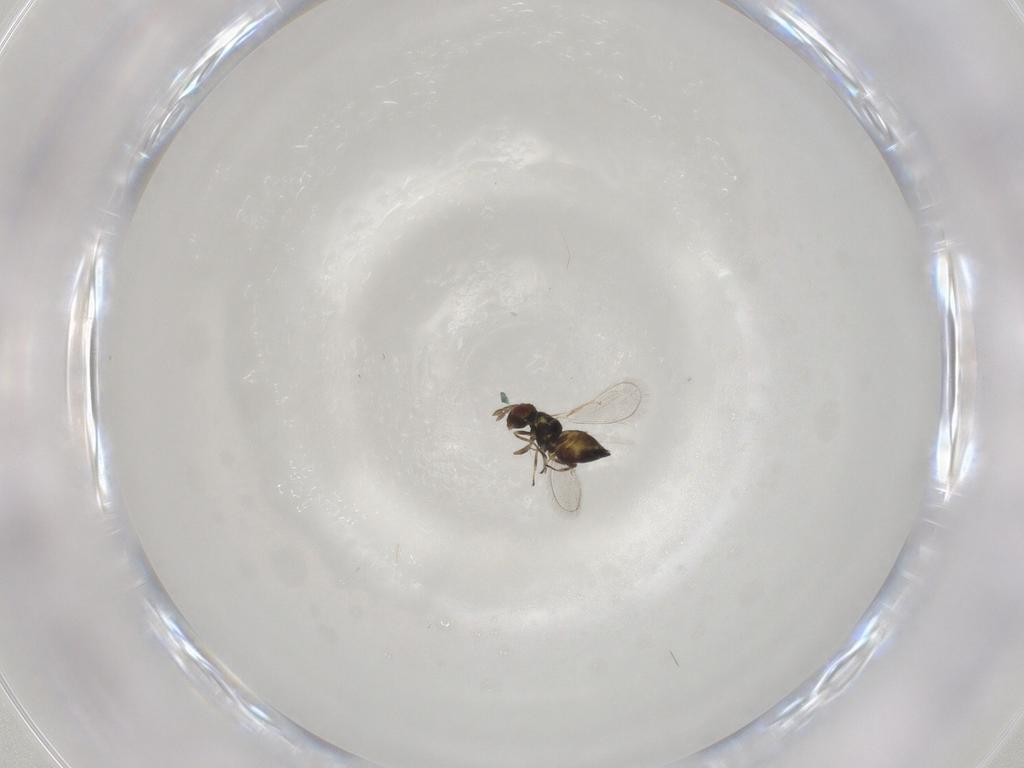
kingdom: Animalia
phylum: Arthropoda
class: Insecta
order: Hymenoptera
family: Eulophidae
